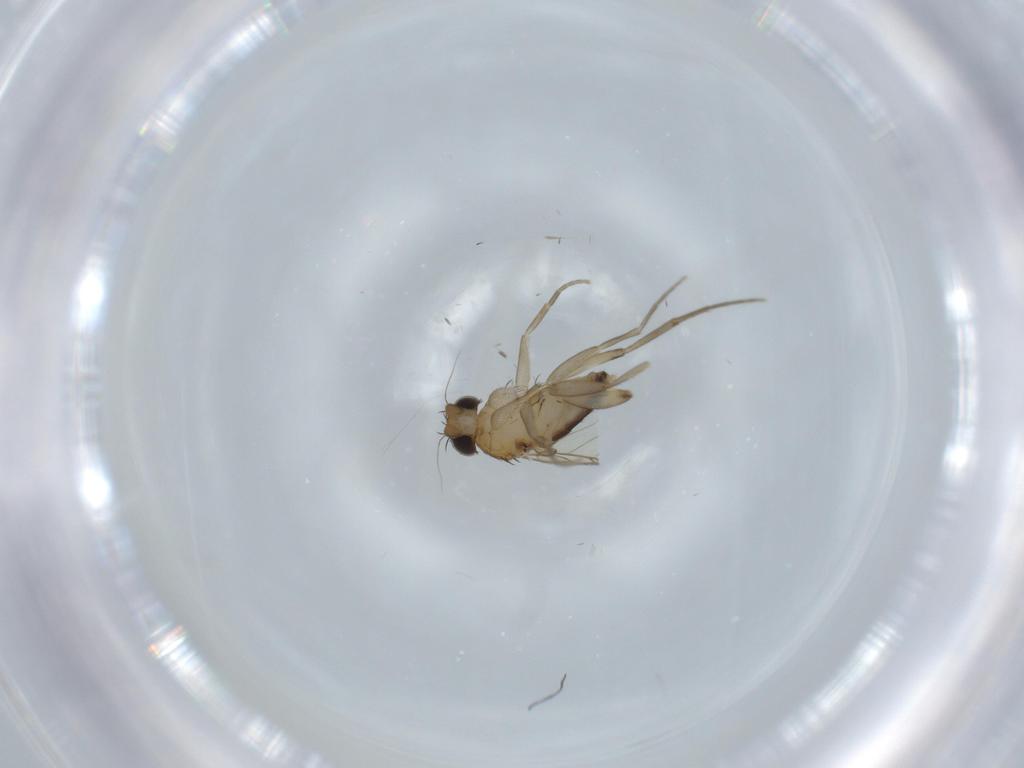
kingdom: Animalia
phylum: Arthropoda
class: Insecta
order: Diptera
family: Phoridae
